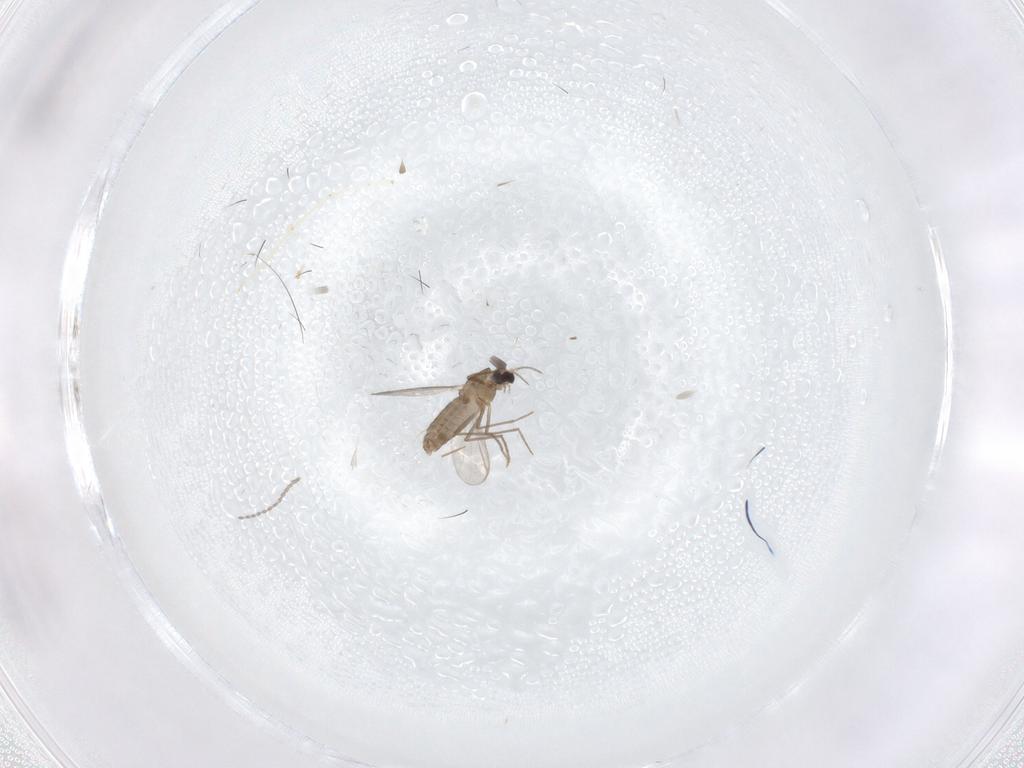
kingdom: Animalia
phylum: Arthropoda
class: Insecta
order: Diptera
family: Cecidomyiidae
